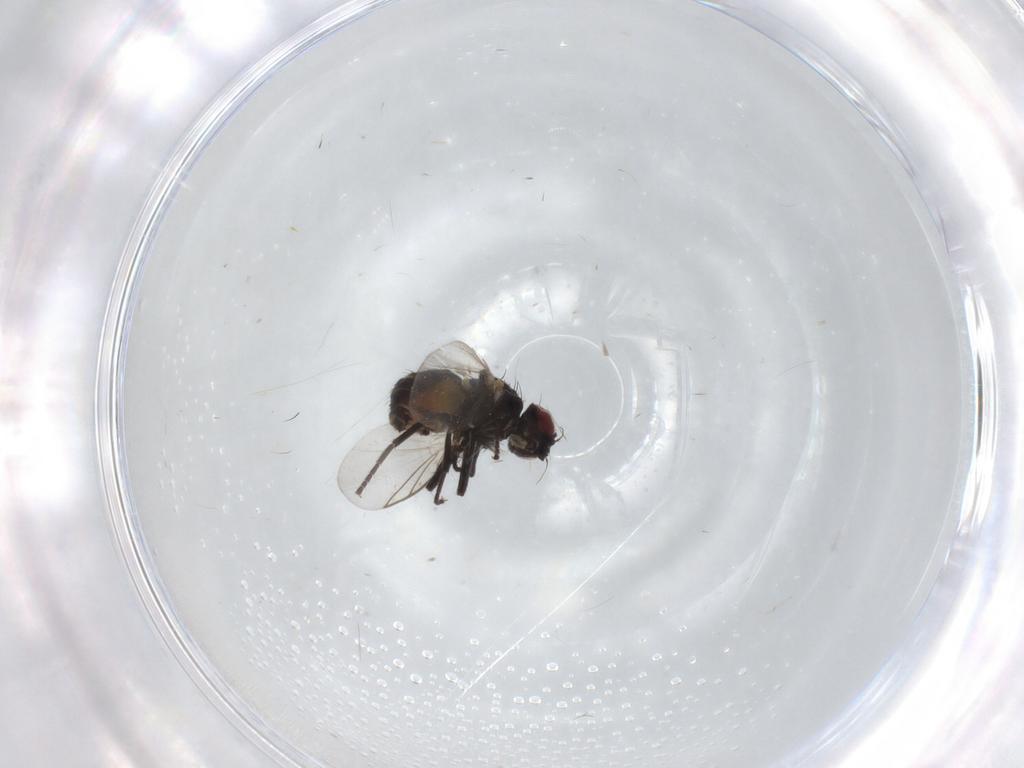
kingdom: Animalia
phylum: Arthropoda
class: Insecta
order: Diptera
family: Agromyzidae
